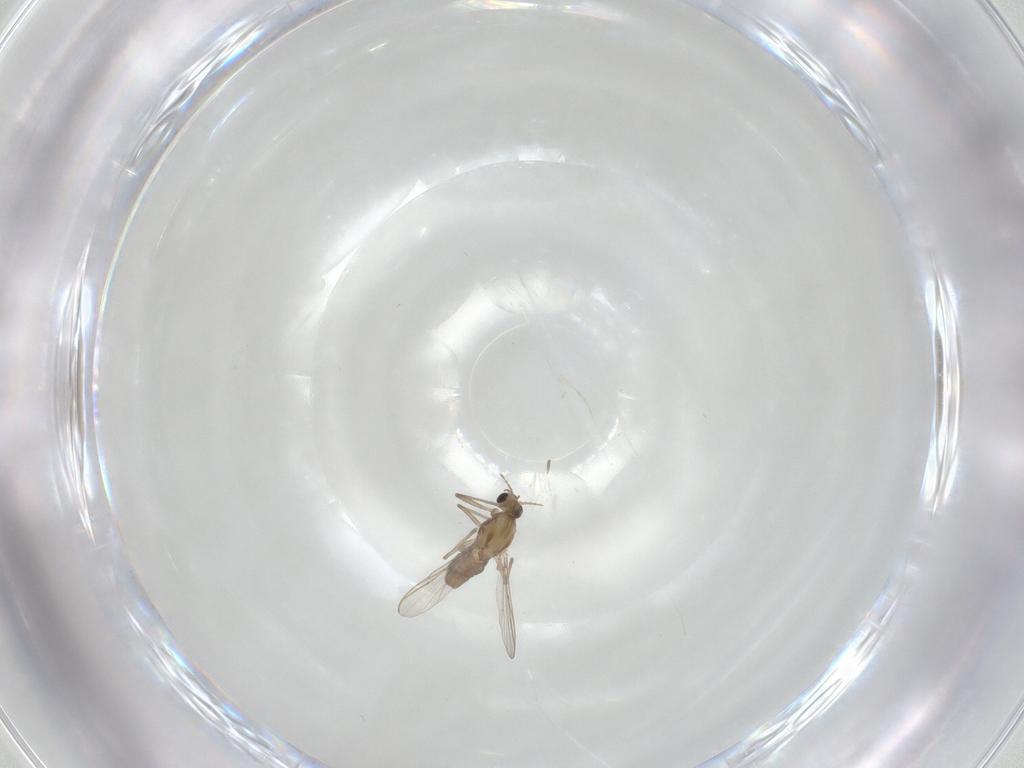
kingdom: Animalia
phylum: Arthropoda
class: Insecta
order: Diptera
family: Chironomidae
